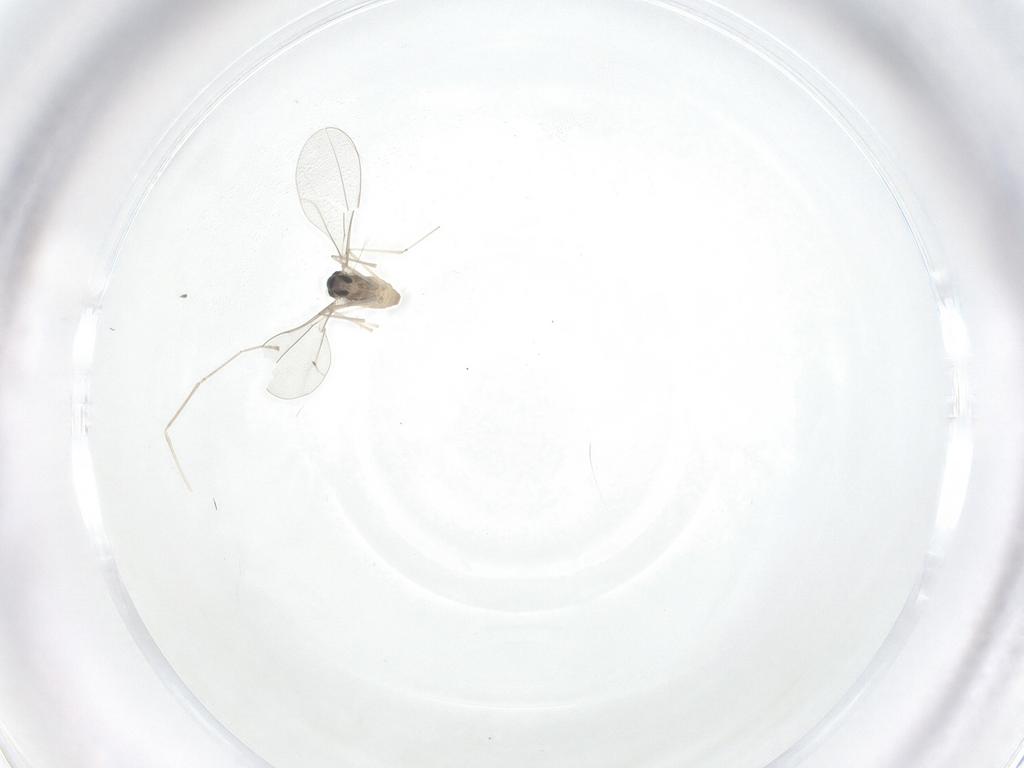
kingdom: Animalia
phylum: Arthropoda
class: Insecta
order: Diptera
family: Cecidomyiidae
